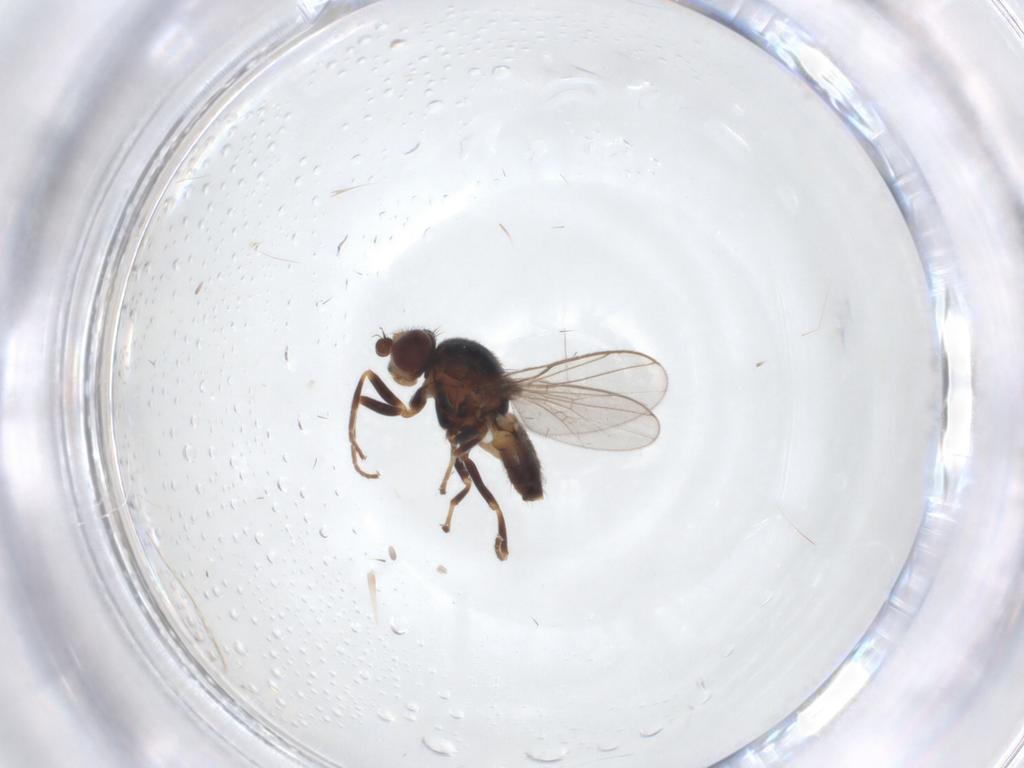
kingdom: Animalia
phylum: Arthropoda
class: Insecta
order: Diptera
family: Chloropidae
